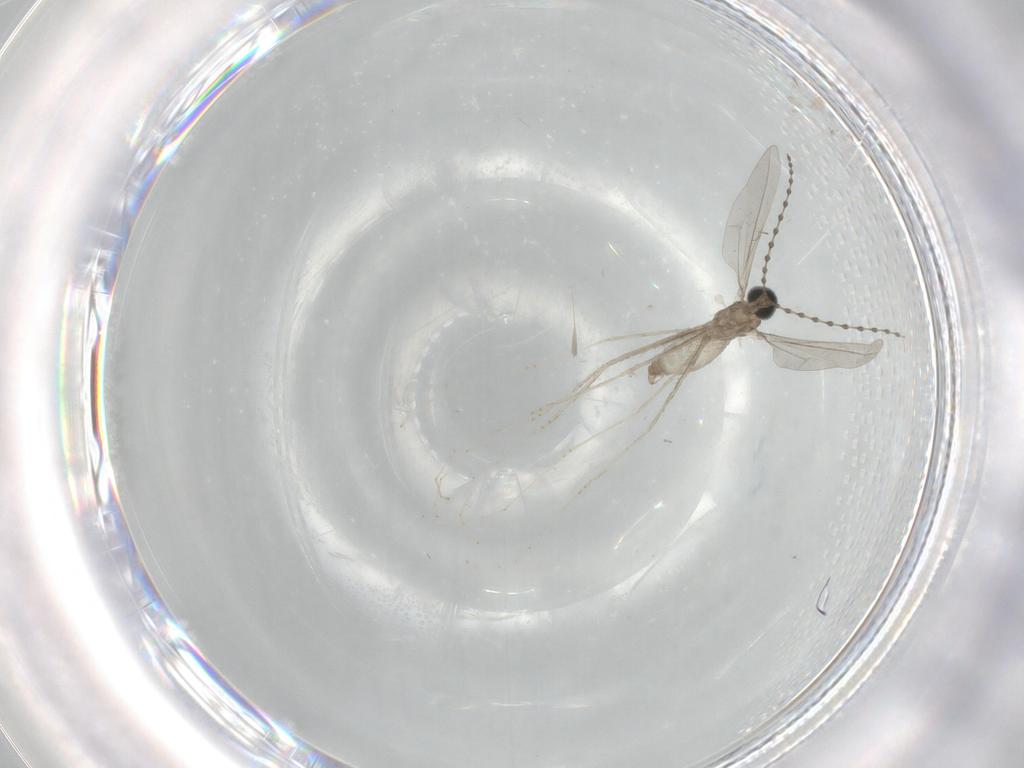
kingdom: Animalia
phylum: Arthropoda
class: Insecta
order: Diptera
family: Cecidomyiidae
